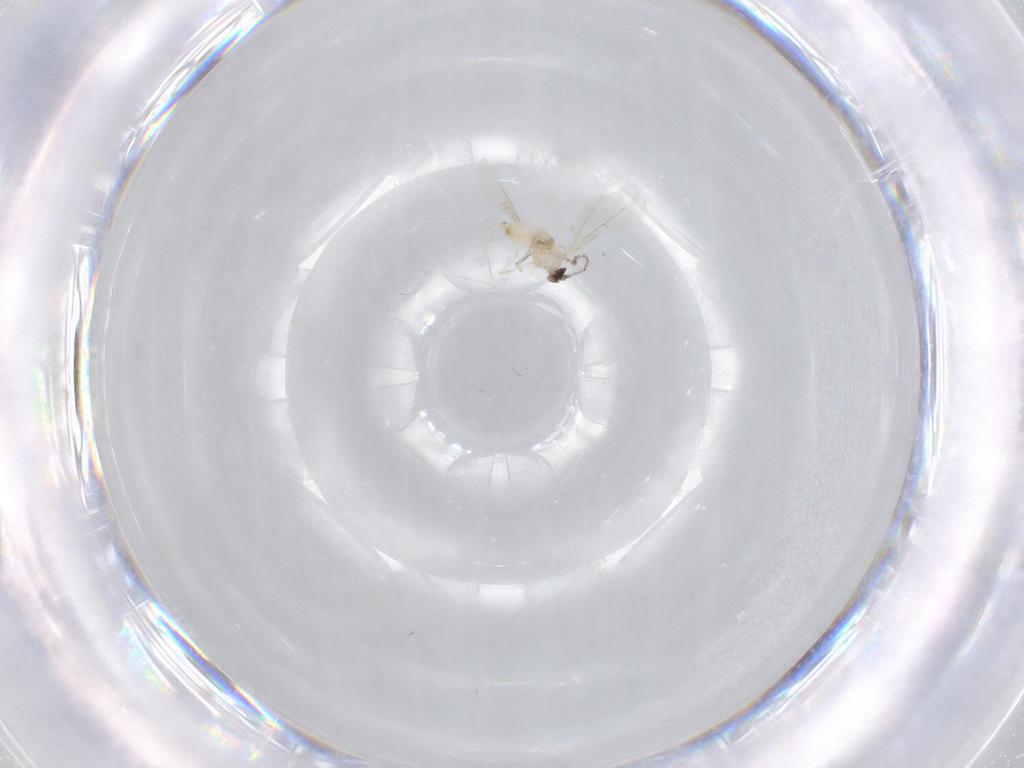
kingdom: Animalia
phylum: Arthropoda
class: Insecta
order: Diptera
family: Cecidomyiidae
